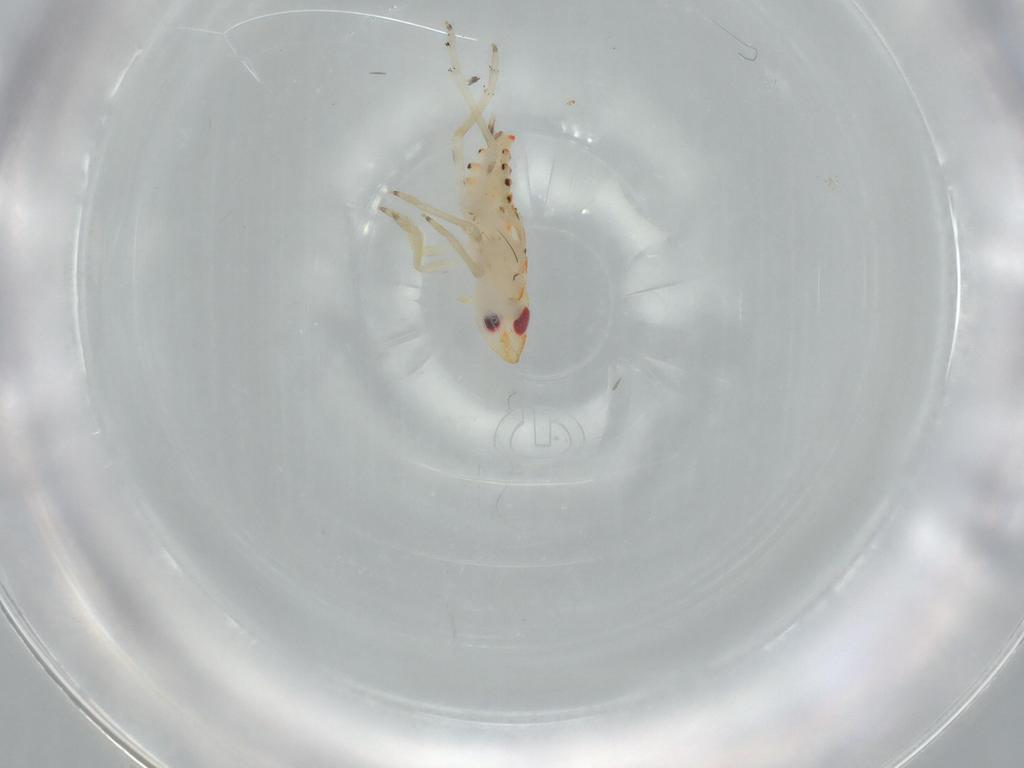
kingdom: Animalia
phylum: Arthropoda
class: Insecta
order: Hemiptera
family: Tropiduchidae
